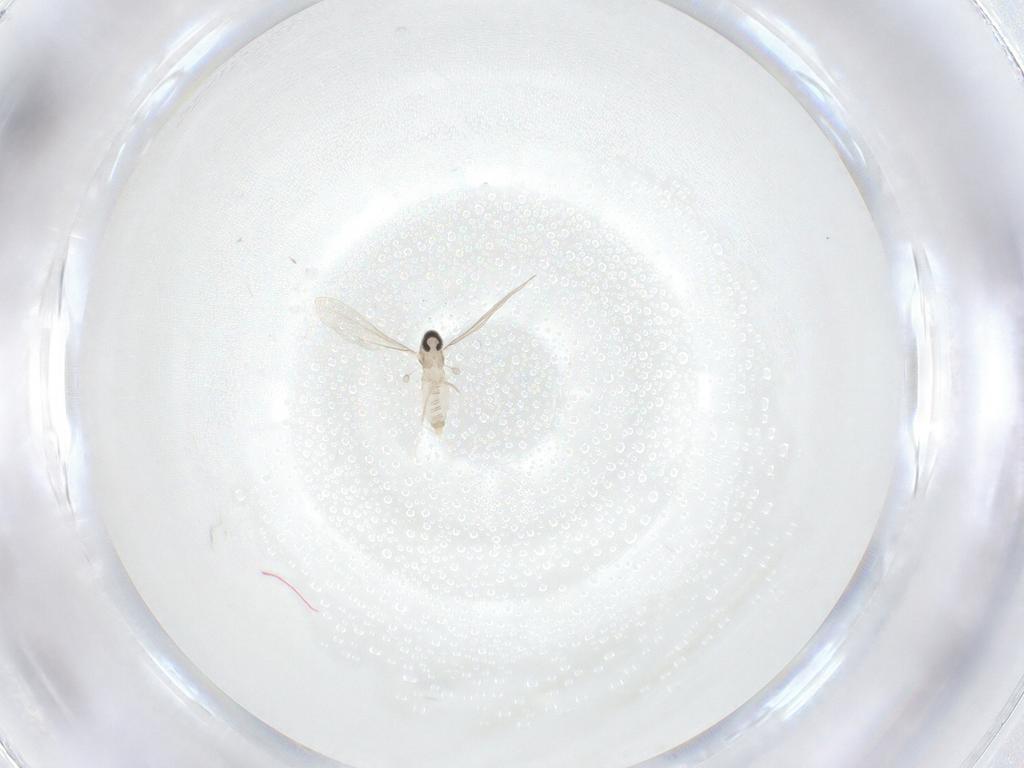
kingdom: Animalia
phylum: Arthropoda
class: Insecta
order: Diptera
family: Cecidomyiidae
